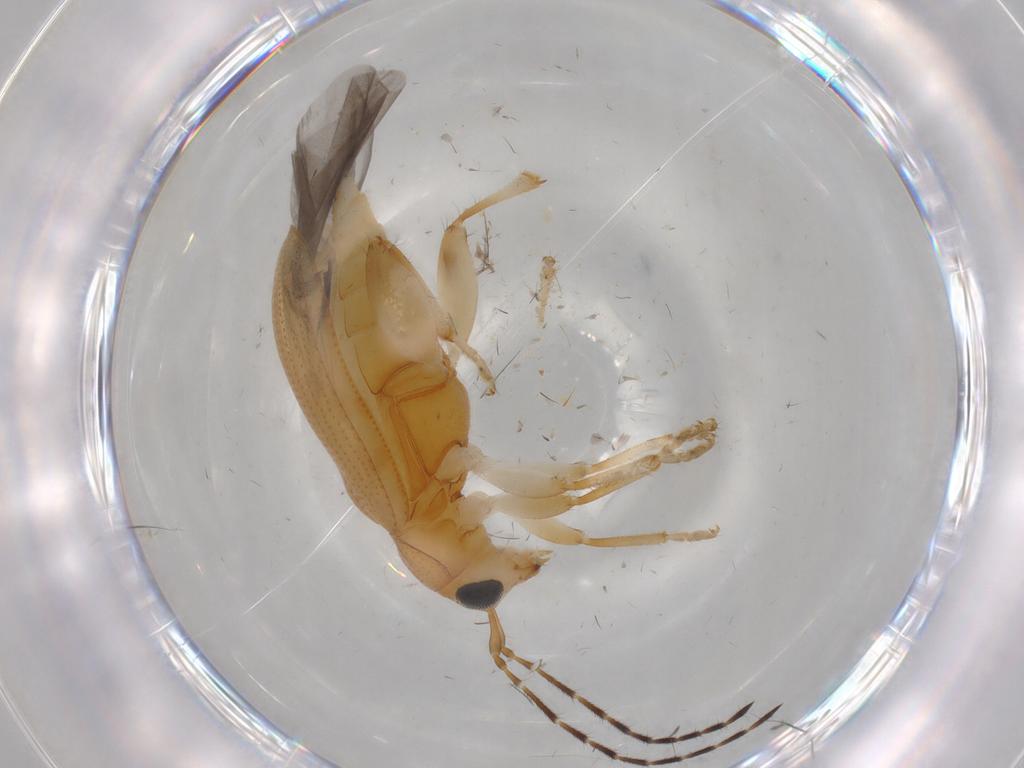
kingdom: Animalia
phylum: Arthropoda
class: Insecta
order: Coleoptera
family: Chrysomelidae
